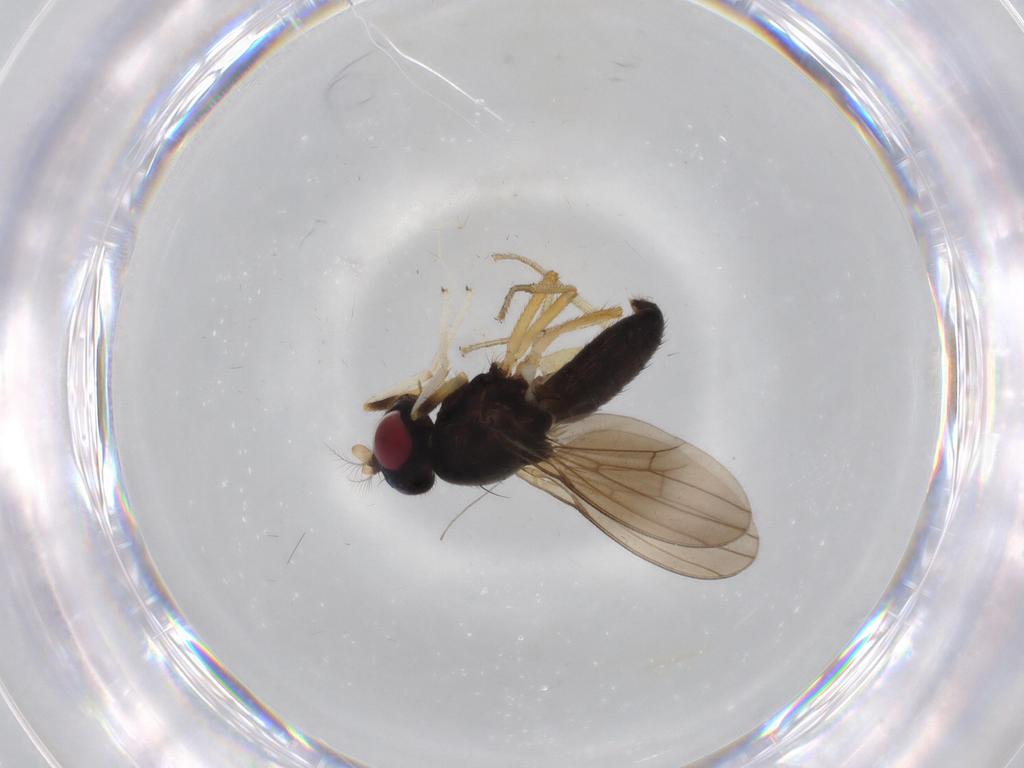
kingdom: Animalia
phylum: Arthropoda
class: Insecta
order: Diptera
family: Lauxaniidae
